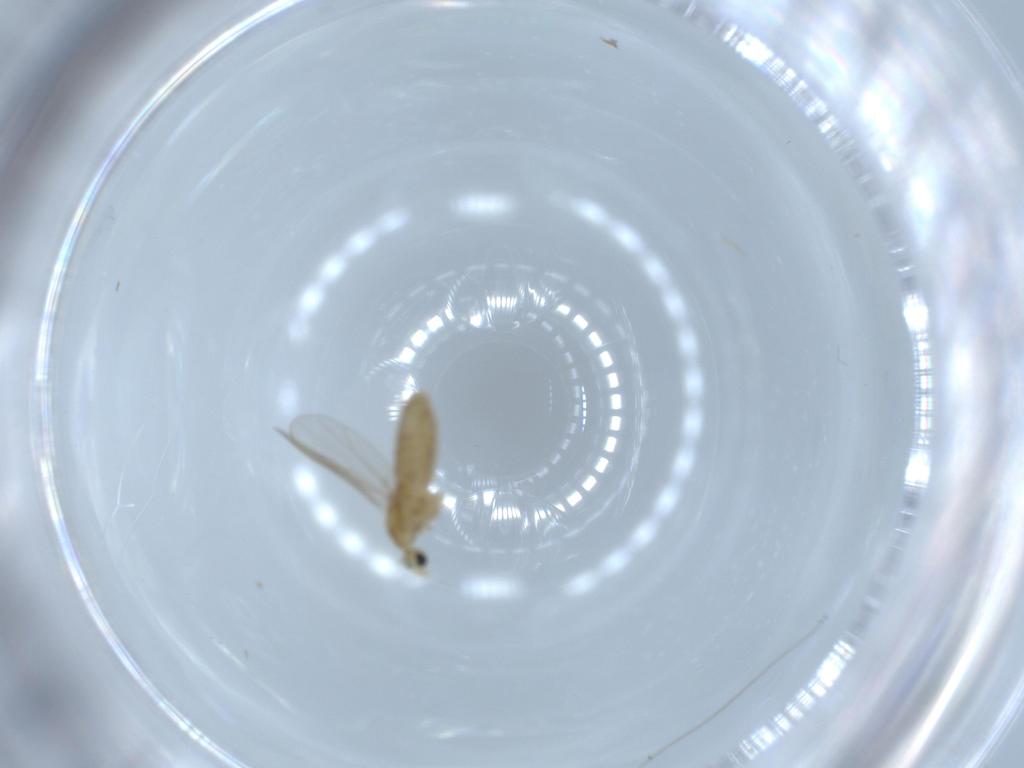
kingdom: Animalia
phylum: Arthropoda
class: Insecta
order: Diptera
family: Chironomidae
